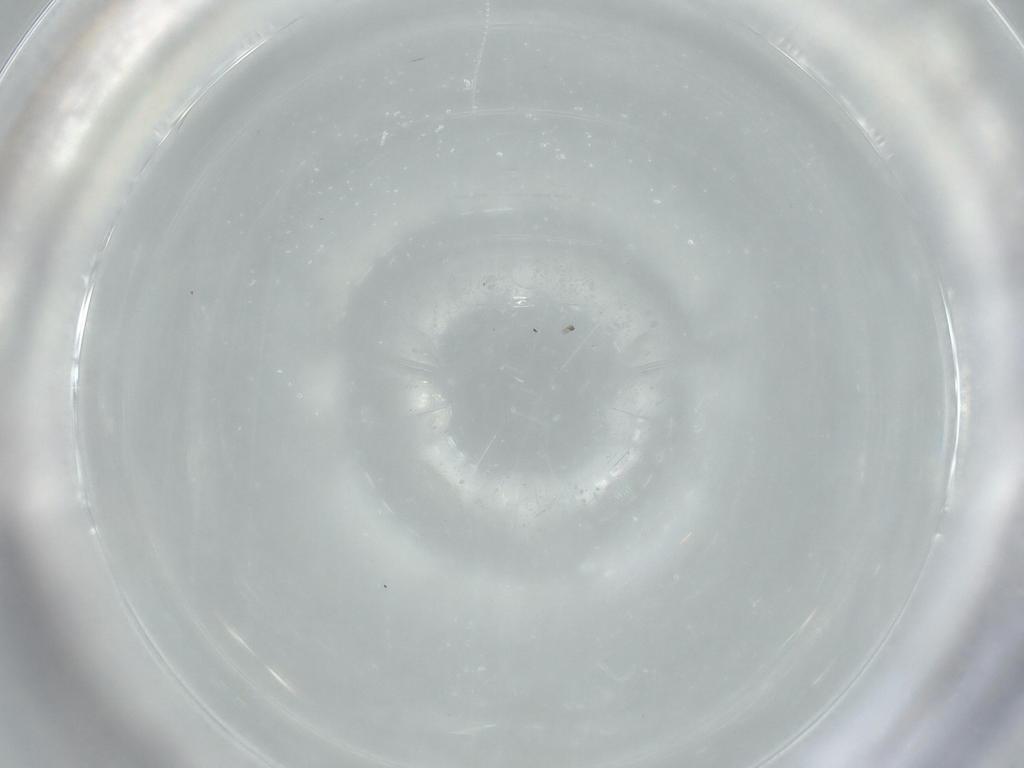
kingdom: Animalia
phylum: Arthropoda
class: Insecta
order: Diptera
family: Cecidomyiidae
